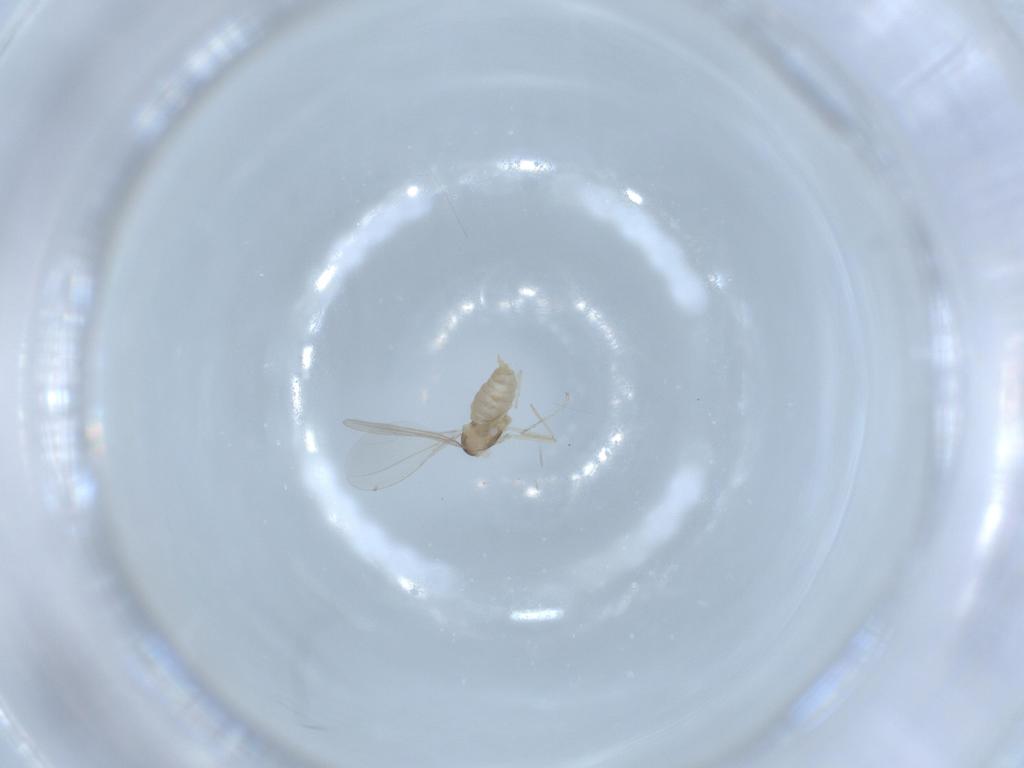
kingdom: Animalia
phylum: Arthropoda
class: Insecta
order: Diptera
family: Cecidomyiidae
